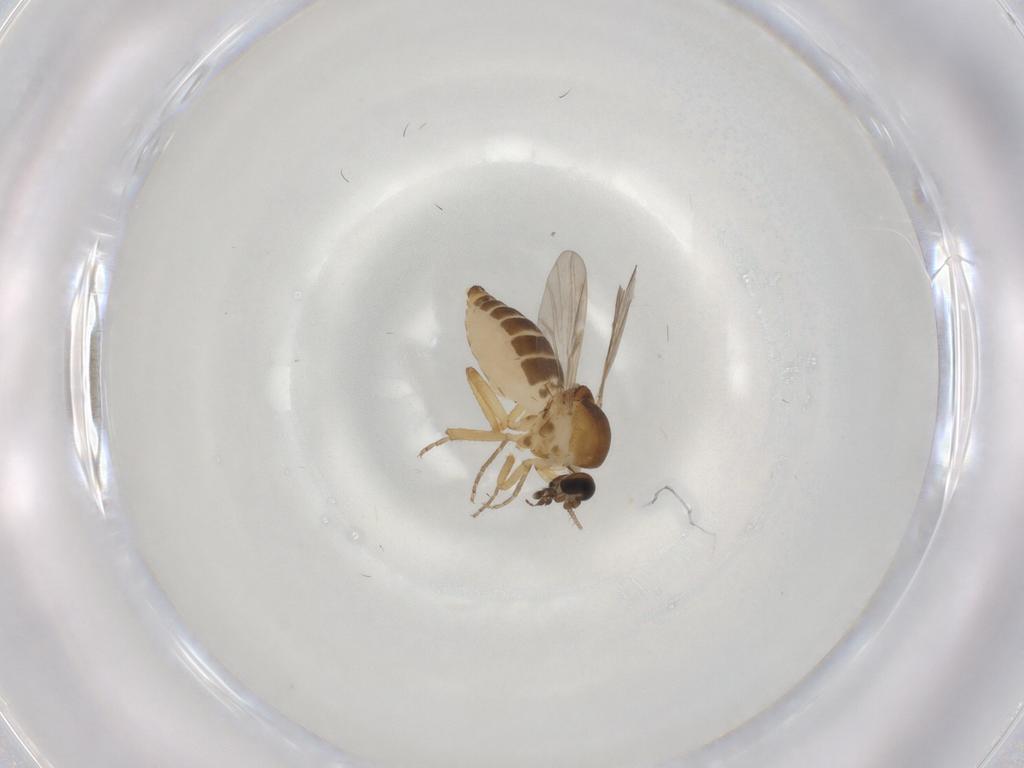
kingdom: Animalia
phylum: Arthropoda
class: Insecta
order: Diptera
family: Ceratopogonidae
